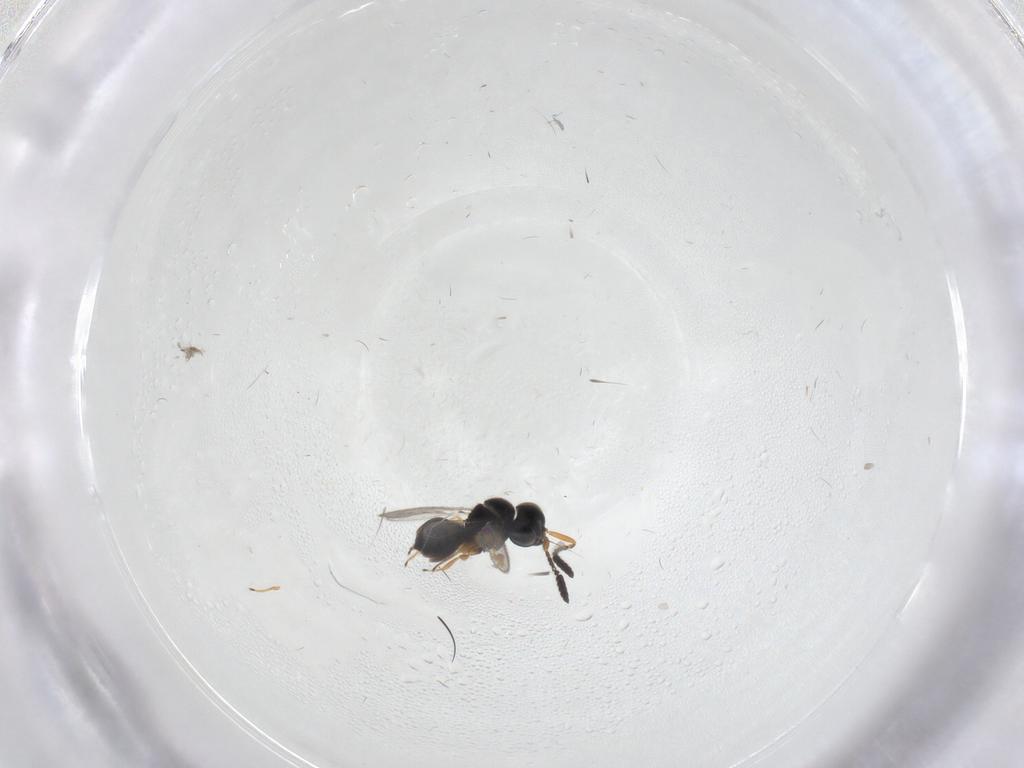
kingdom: Animalia
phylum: Arthropoda
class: Insecta
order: Hymenoptera
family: Scelionidae
